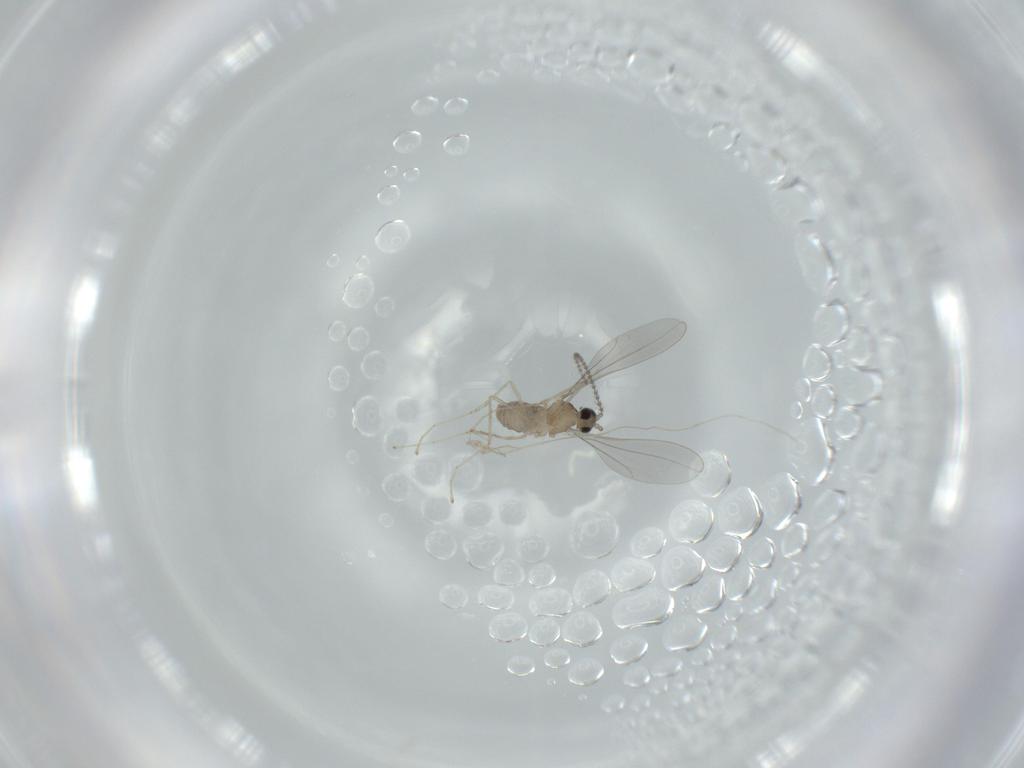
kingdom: Animalia
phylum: Arthropoda
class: Insecta
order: Diptera
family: Cecidomyiidae
